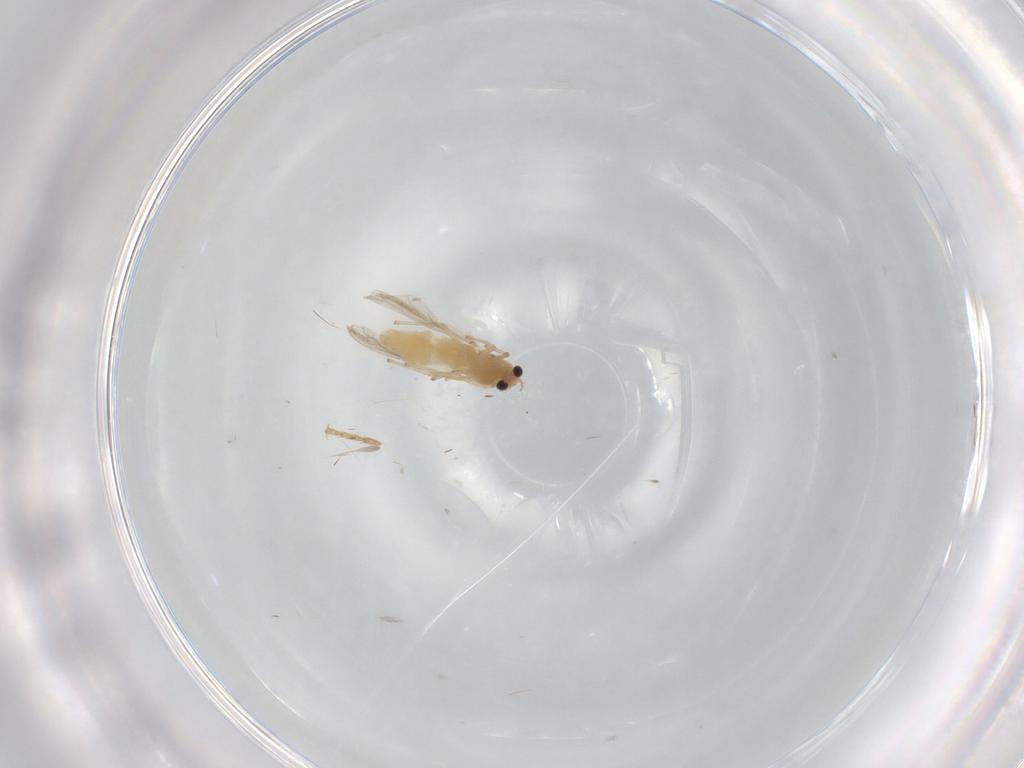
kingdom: Animalia
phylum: Arthropoda
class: Insecta
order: Diptera
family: Chironomidae
